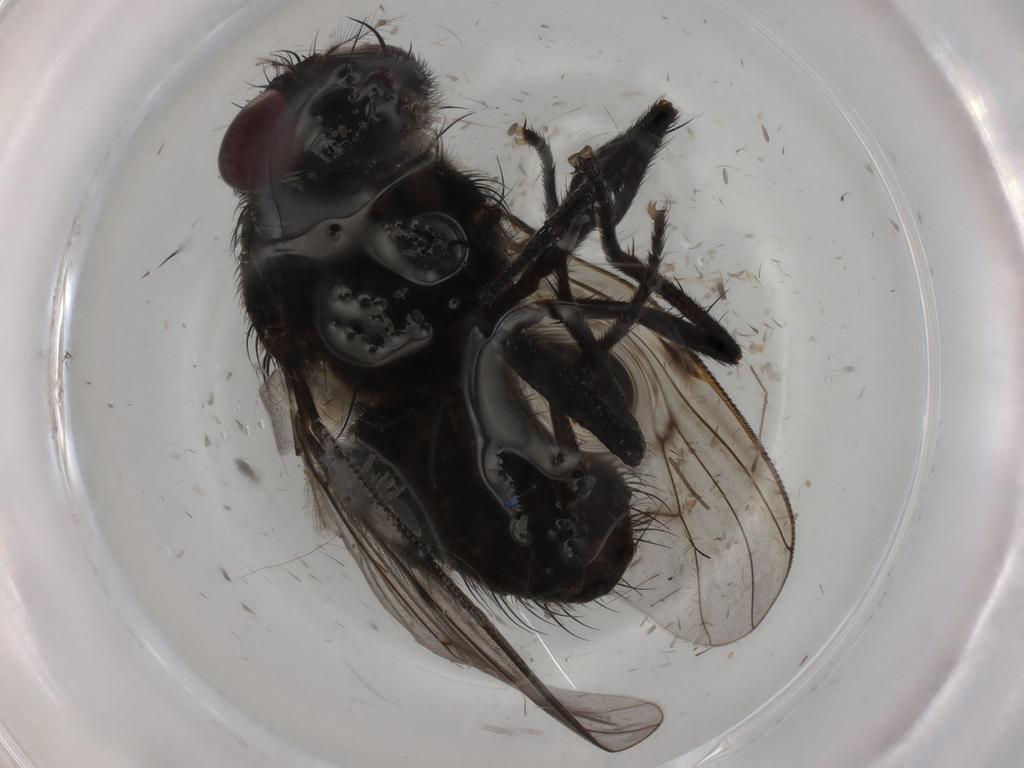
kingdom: Animalia
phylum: Arthropoda
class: Insecta
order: Diptera
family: Muscidae
